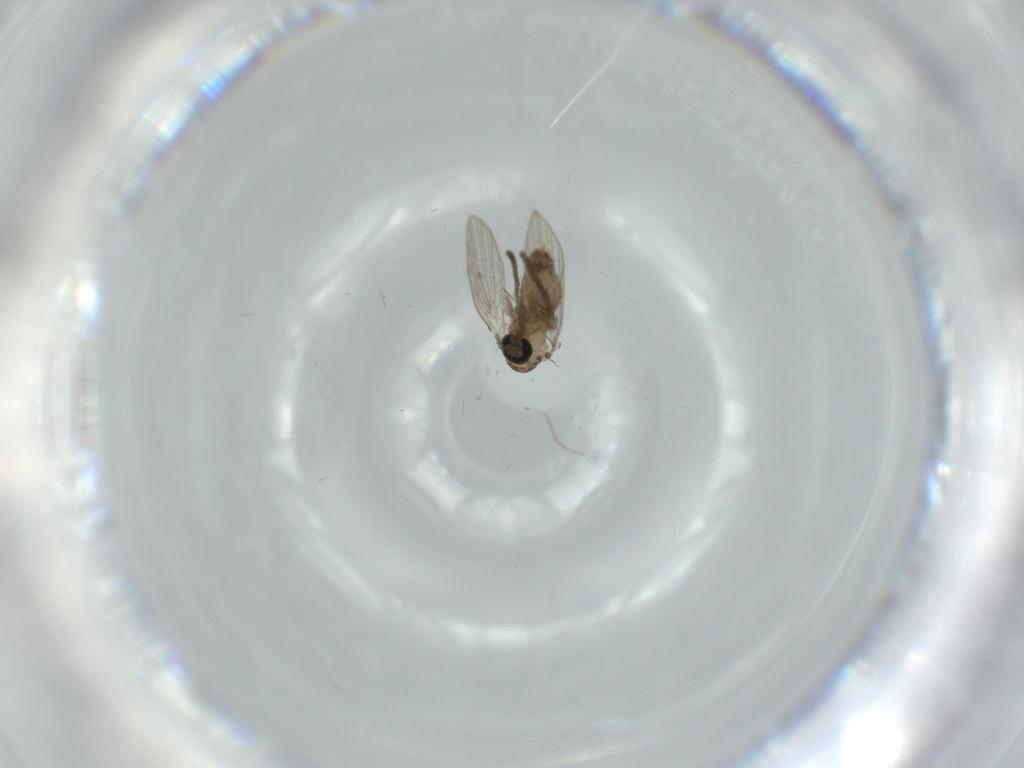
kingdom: Animalia
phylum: Arthropoda
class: Insecta
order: Diptera
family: Psychodidae
